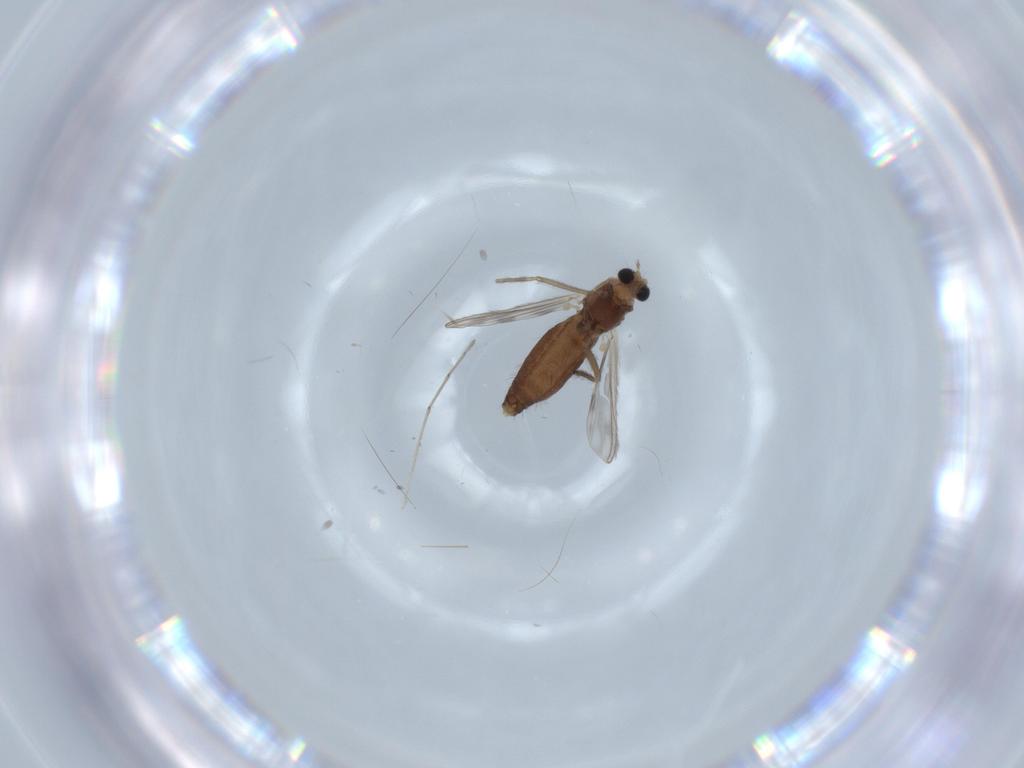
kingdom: Animalia
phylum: Arthropoda
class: Insecta
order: Diptera
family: Chironomidae
